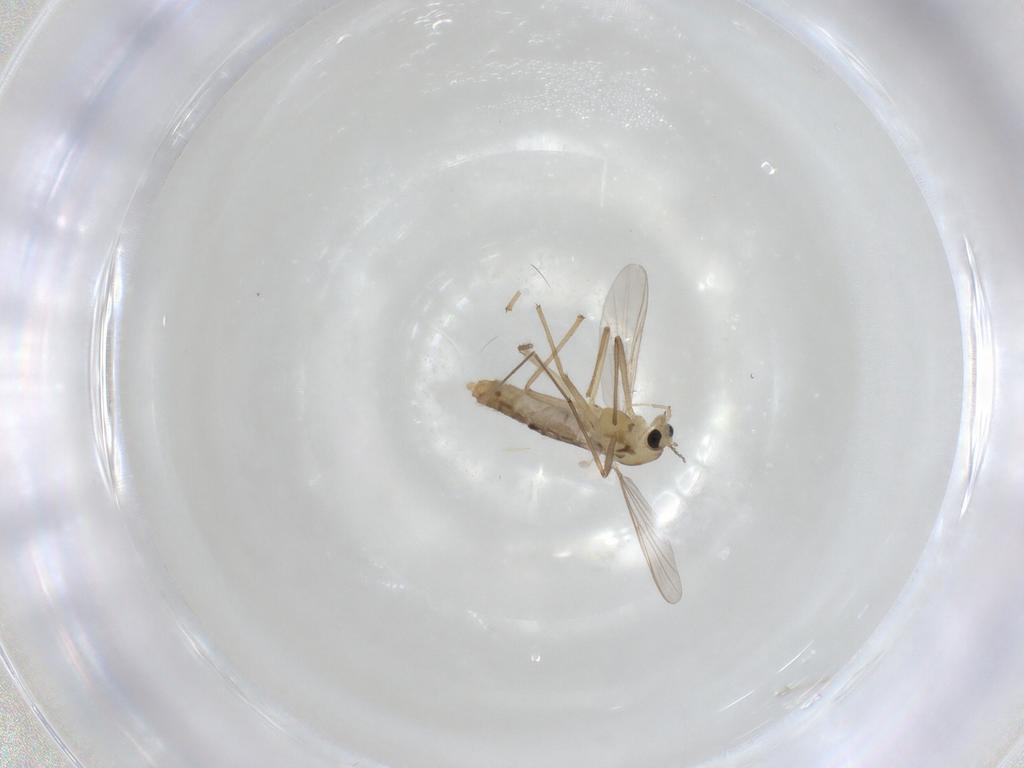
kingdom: Animalia
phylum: Arthropoda
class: Insecta
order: Diptera
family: Chironomidae
